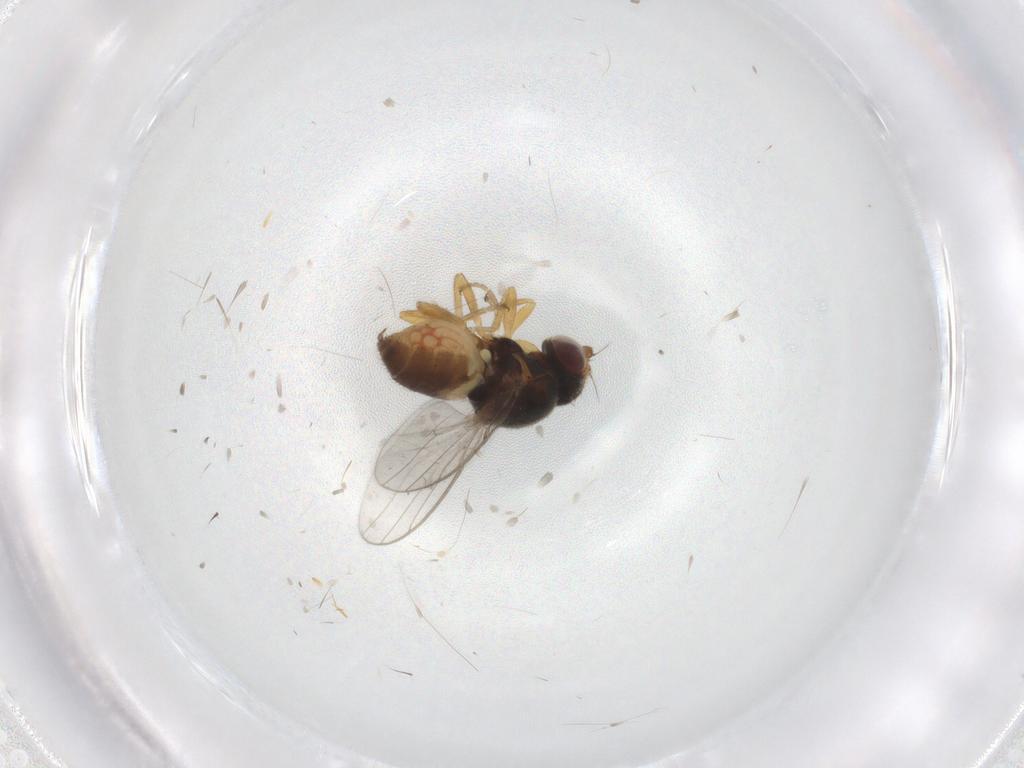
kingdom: Animalia
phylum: Arthropoda
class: Insecta
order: Diptera
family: Chloropidae
